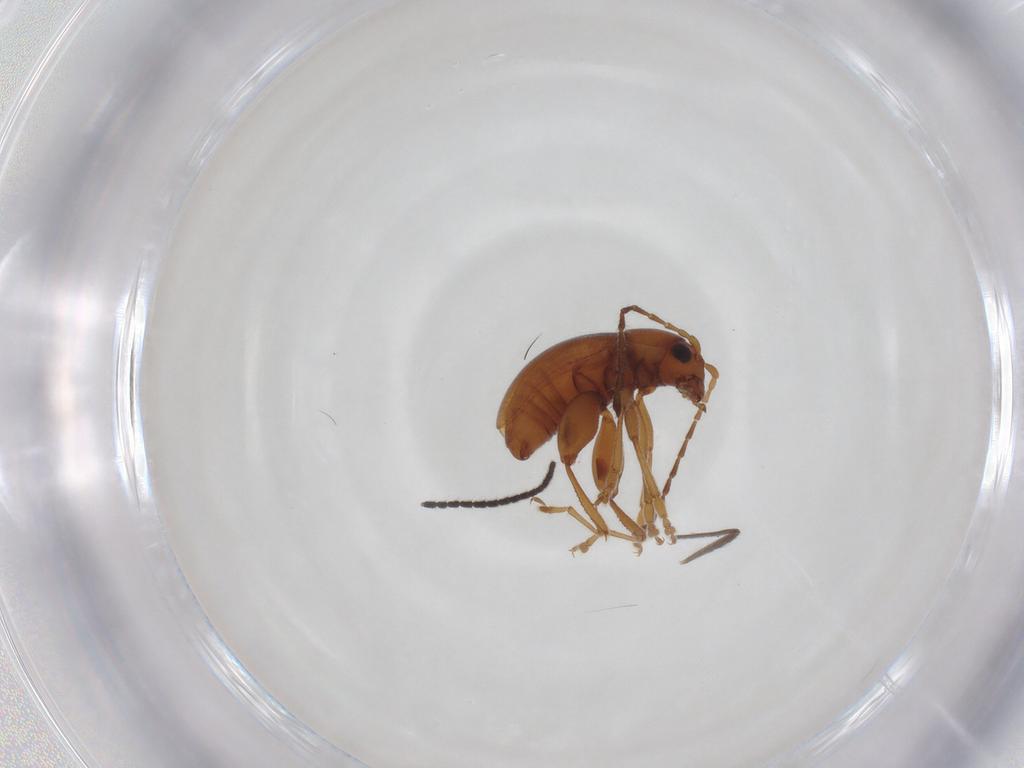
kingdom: Animalia
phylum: Arthropoda
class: Insecta
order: Coleoptera
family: Chrysomelidae
